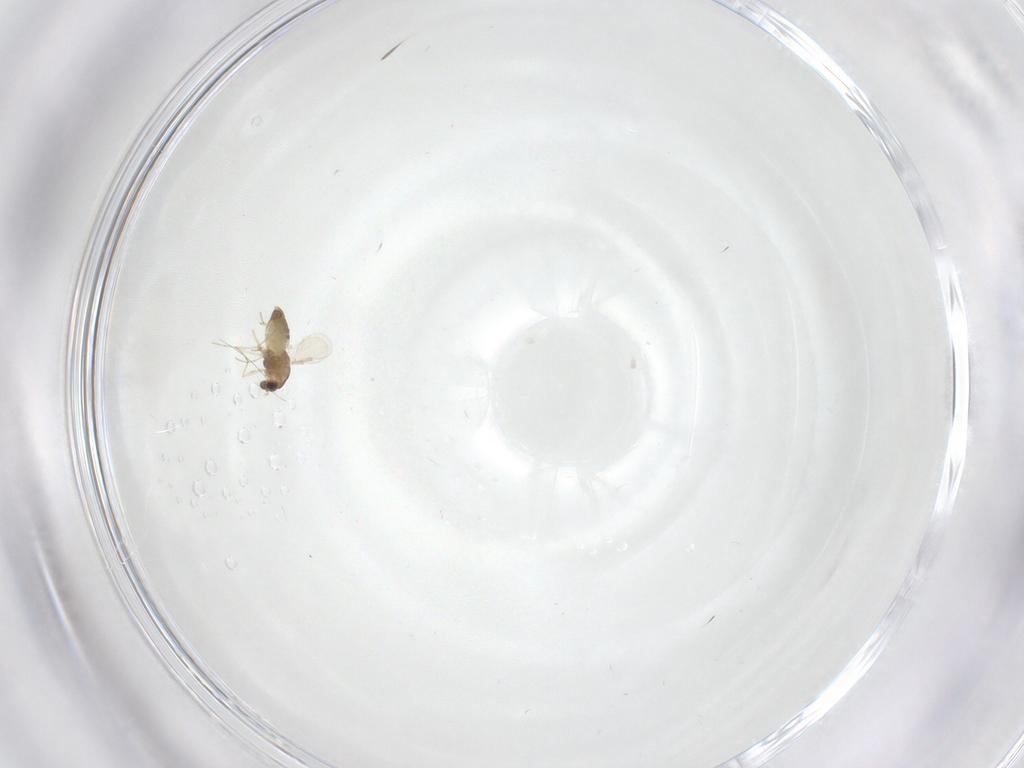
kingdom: Animalia
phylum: Arthropoda
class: Insecta
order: Diptera
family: Chironomidae
